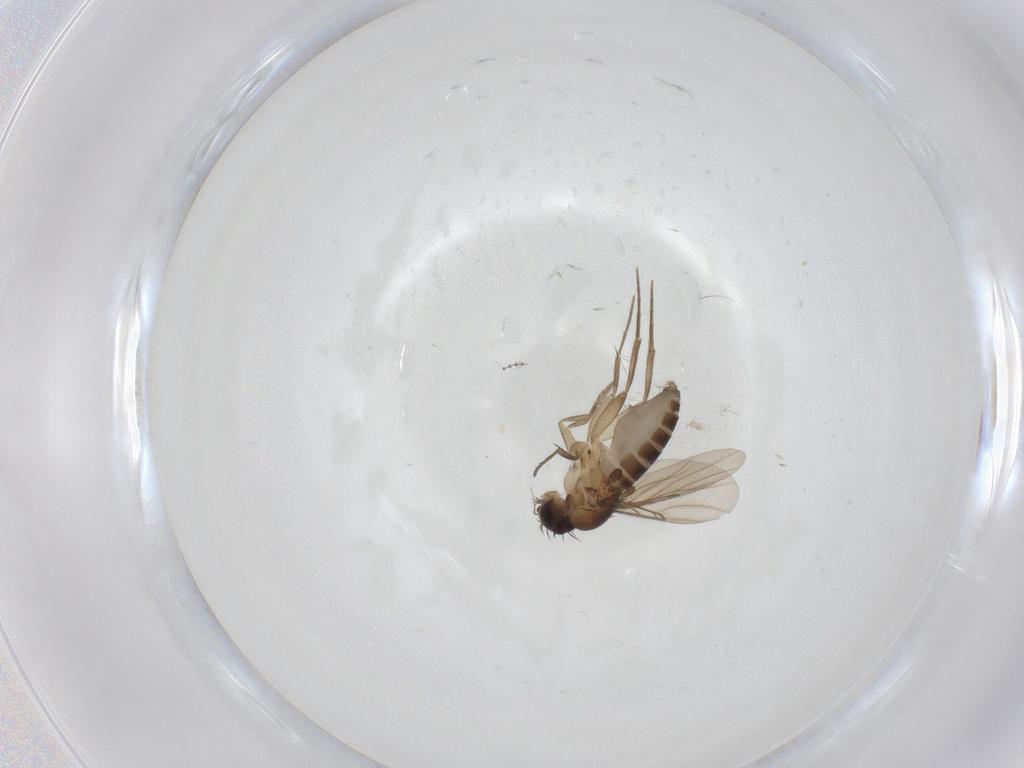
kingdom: Animalia
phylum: Arthropoda
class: Insecta
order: Diptera
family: Phoridae
